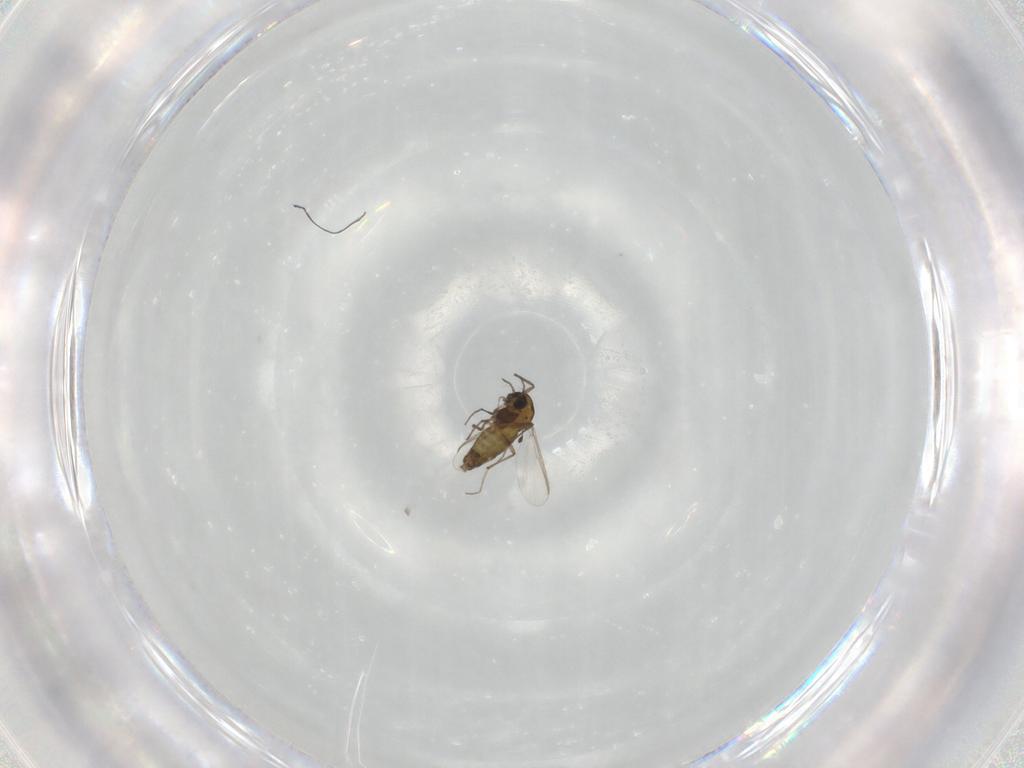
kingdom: Animalia
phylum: Arthropoda
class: Insecta
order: Diptera
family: Chironomidae
